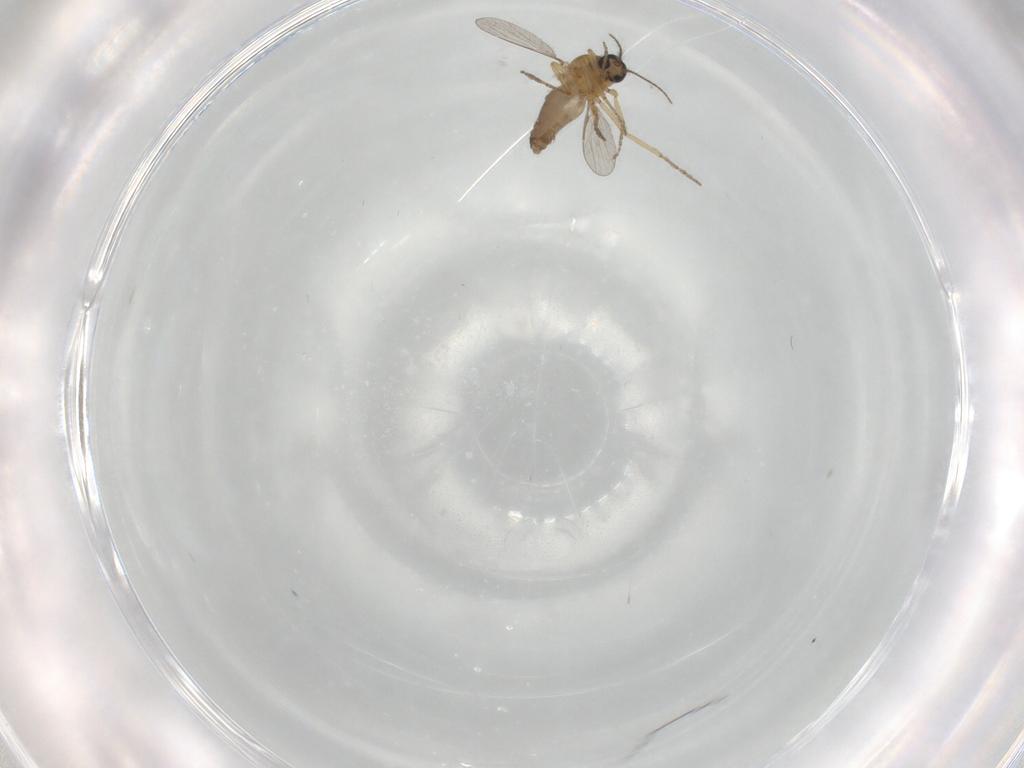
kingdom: Animalia
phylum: Arthropoda
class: Insecta
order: Diptera
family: Ceratopogonidae
